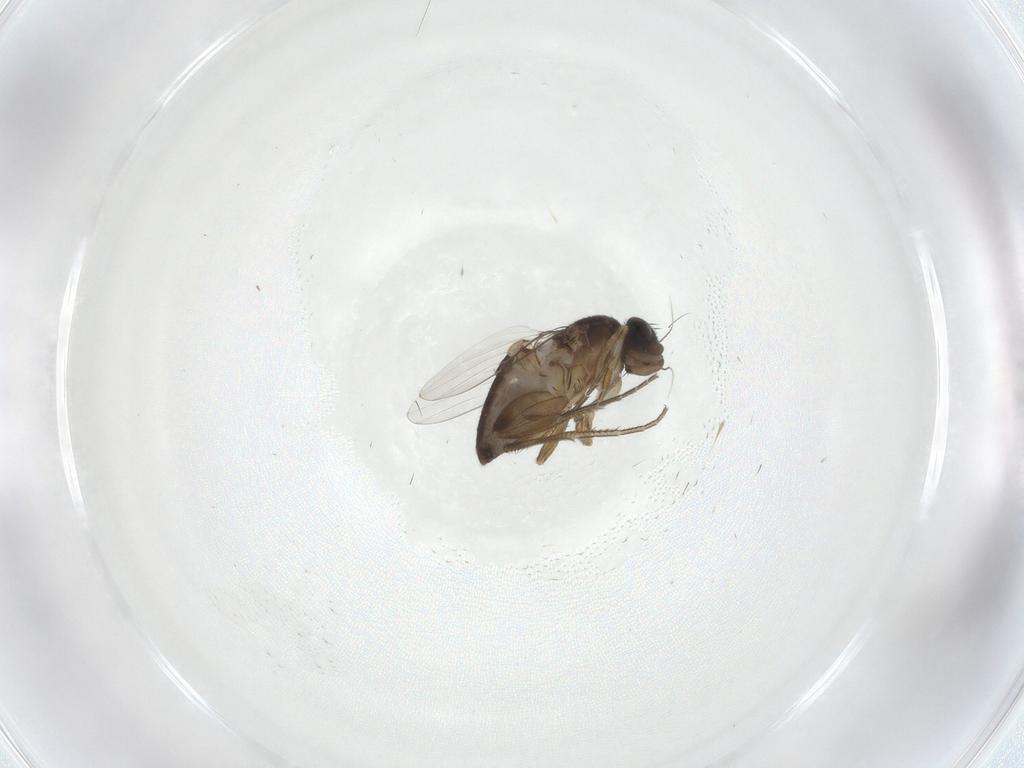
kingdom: Animalia
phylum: Arthropoda
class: Insecta
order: Diptera
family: Phoridae
